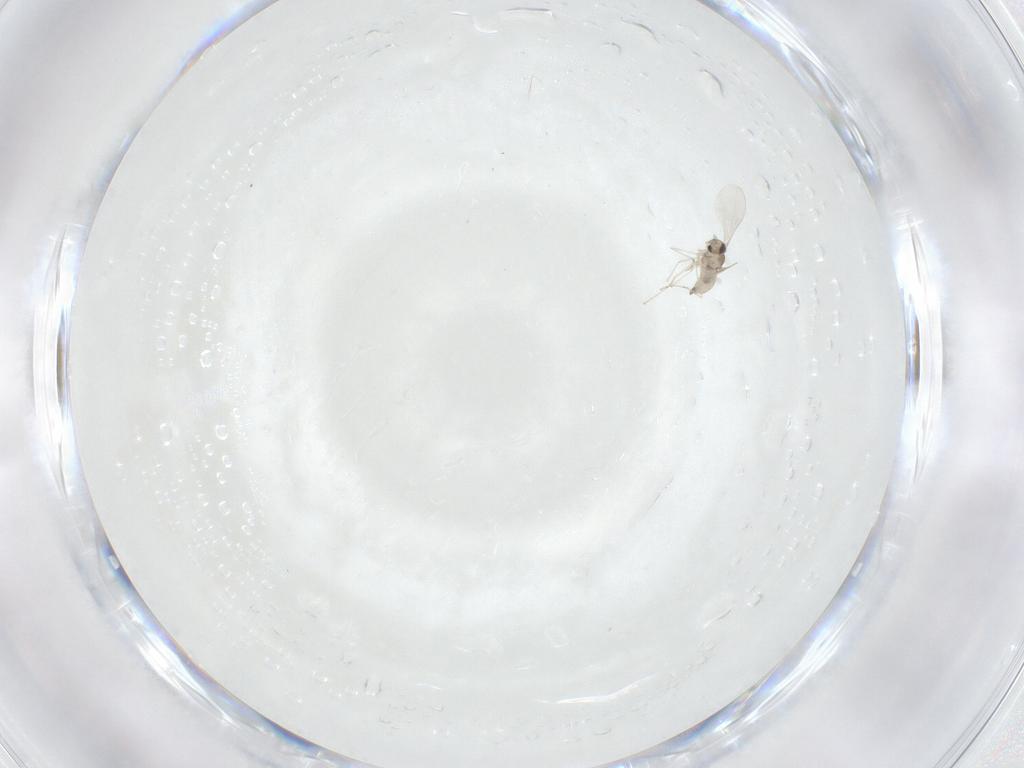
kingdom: Animalia
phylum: Arthropoda
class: Insecta
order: Diptera
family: Cecidomyiidae
